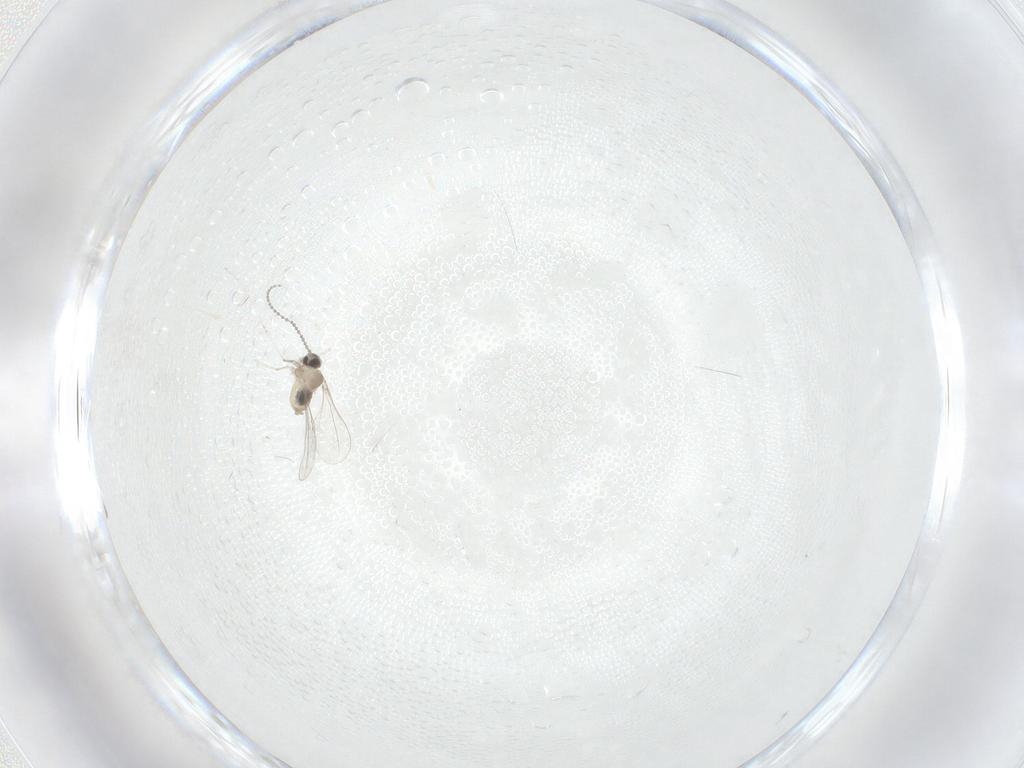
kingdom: Animalia
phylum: Arthropoda
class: Insecta
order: Diptera
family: Cecidomyiidae
